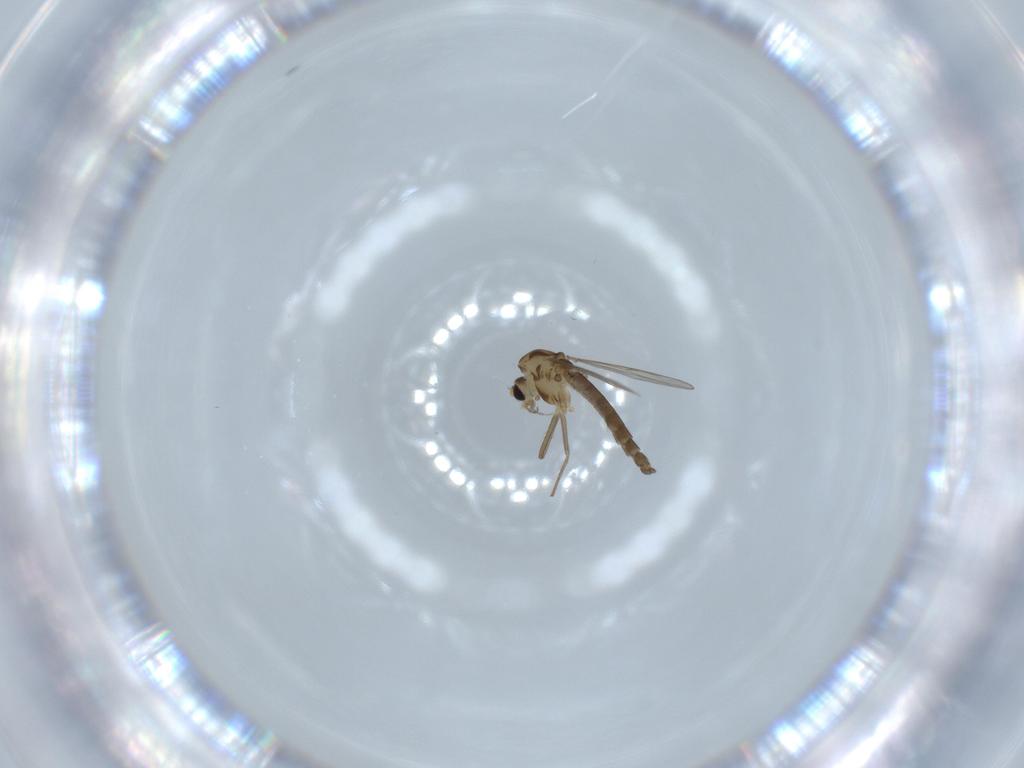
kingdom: Animalia
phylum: Arthropoda
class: Insecta
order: Diptera
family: Chironomidae
